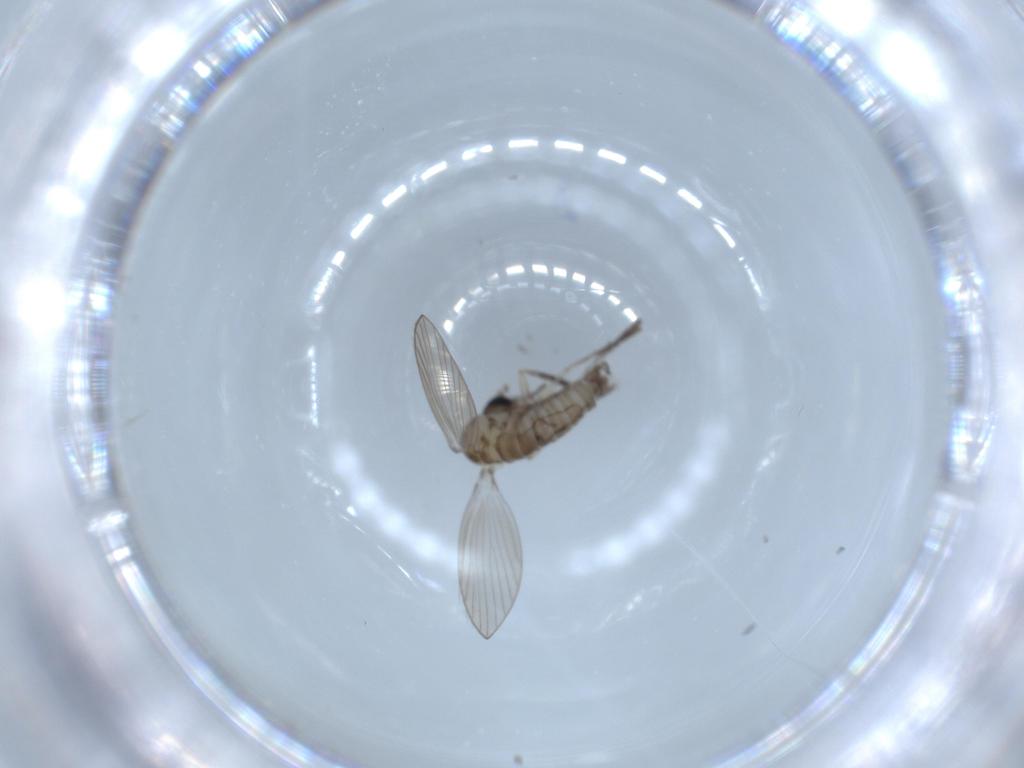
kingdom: Animalia
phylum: Arthropoda
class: Insecta
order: Diptera
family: Psychodidae
